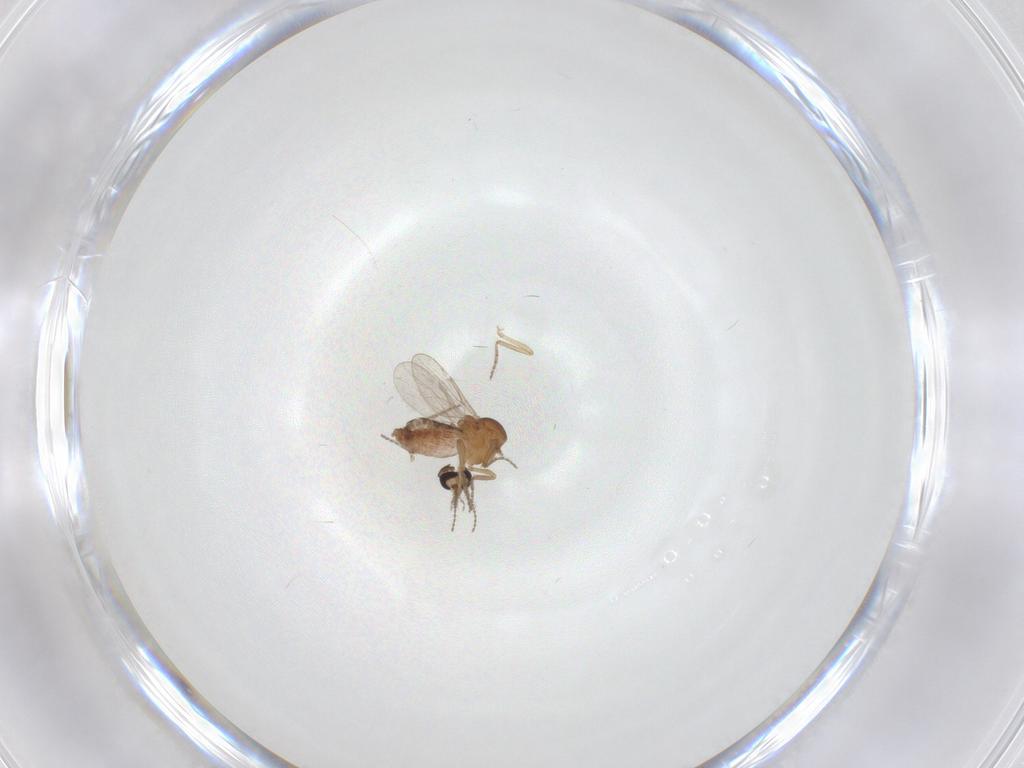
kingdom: Animalia
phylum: Arthropoda
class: Insecta
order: Diptera
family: Ceratopogonidae
